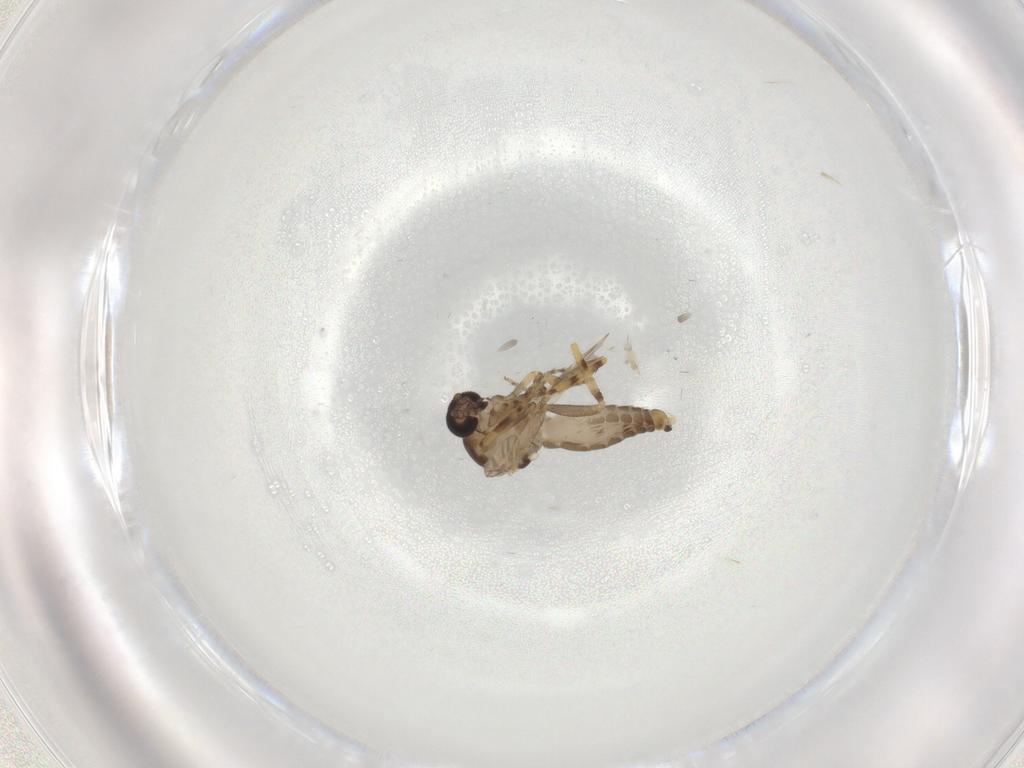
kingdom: Animalia
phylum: Arthropoda
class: Insecta
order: Diptera
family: Ceratopogonidae
